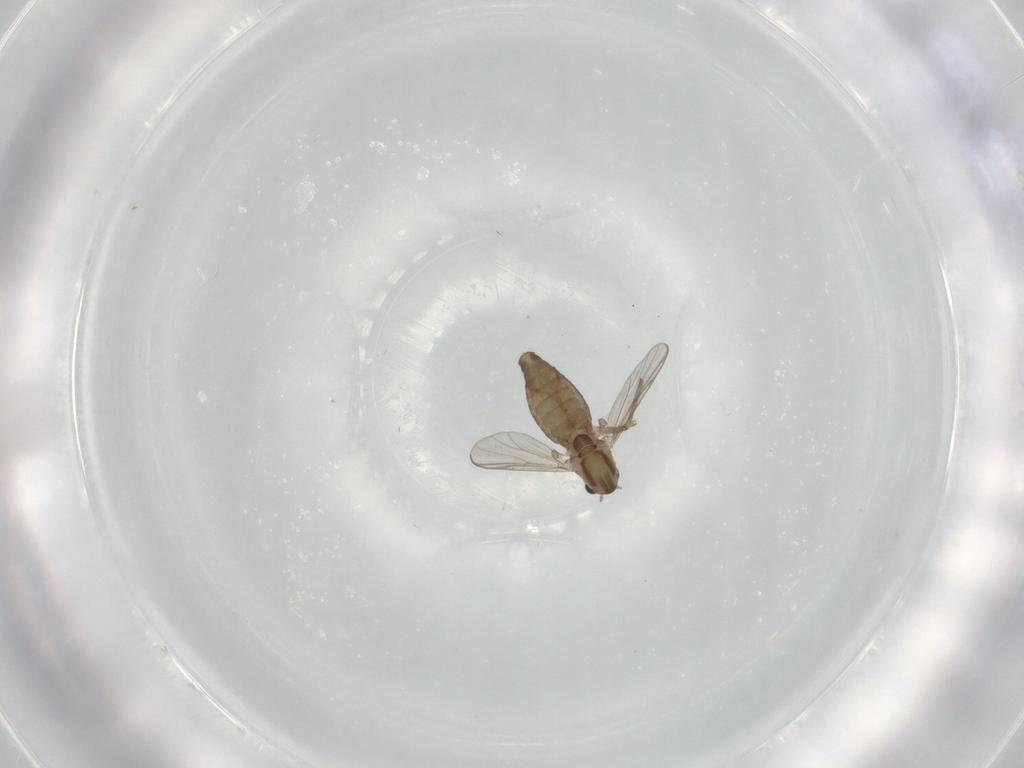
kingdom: Animalia
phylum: Arthropoda
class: Insecta
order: Diptera
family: Chironomidae
